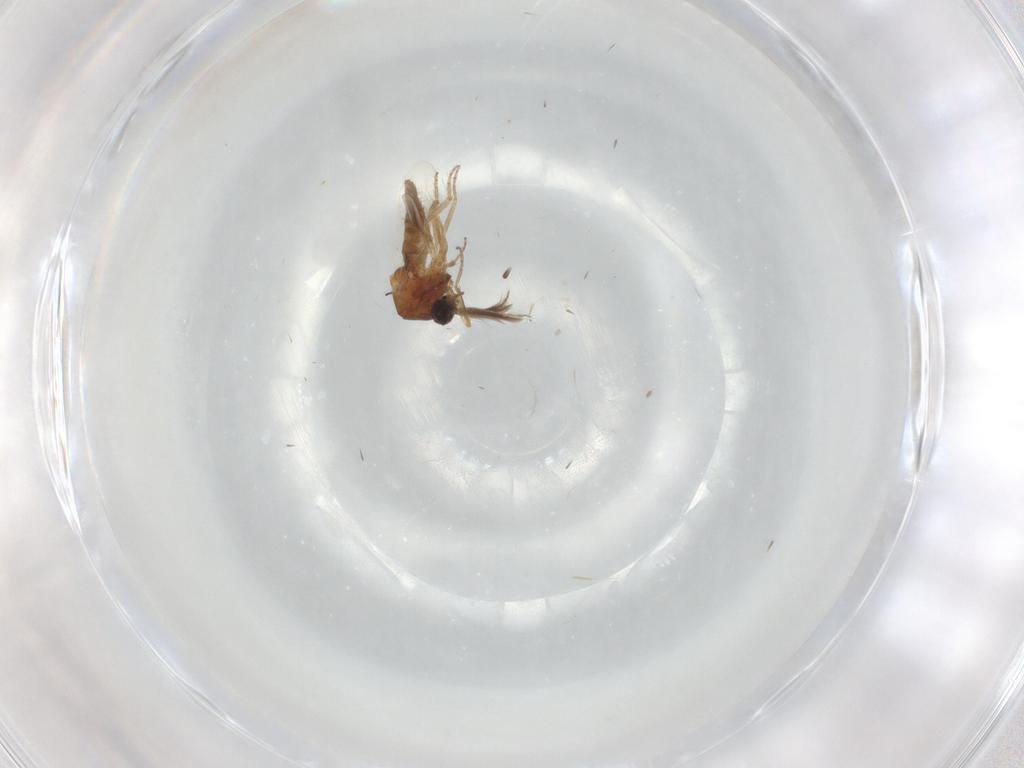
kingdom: Animalia
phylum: Arthropoda
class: Insecta
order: Diptera
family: Ceratopogonidae
